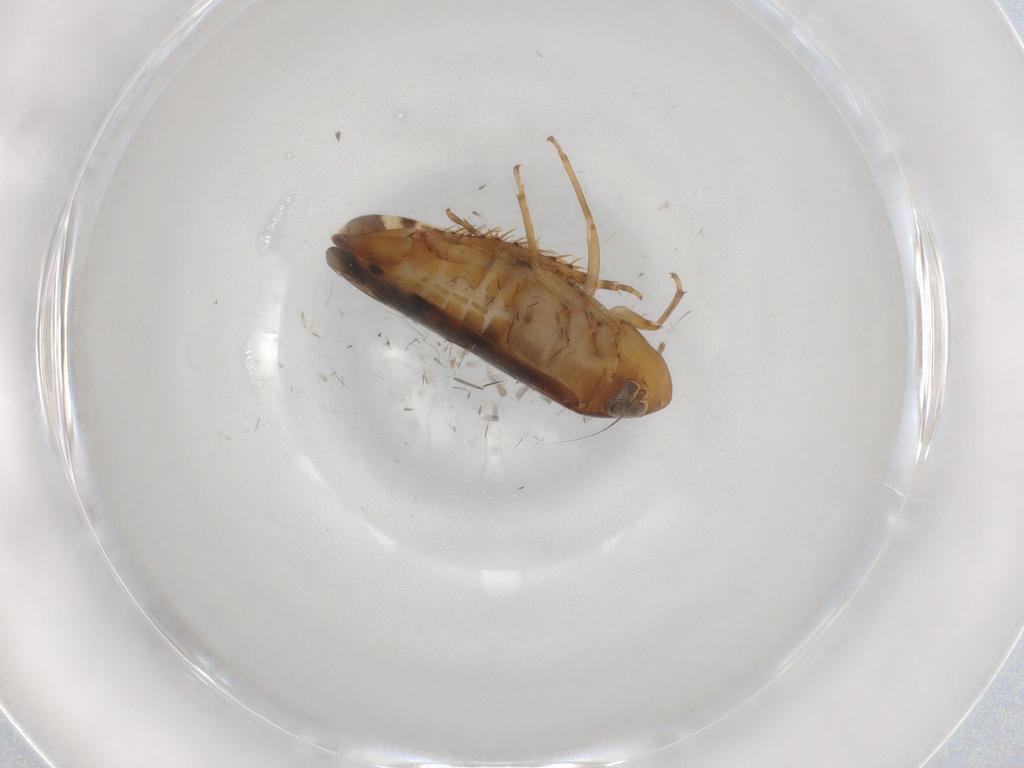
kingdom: Animalia
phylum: Arthropoda
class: Insecta
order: Hemiptera
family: Cicadellidae
